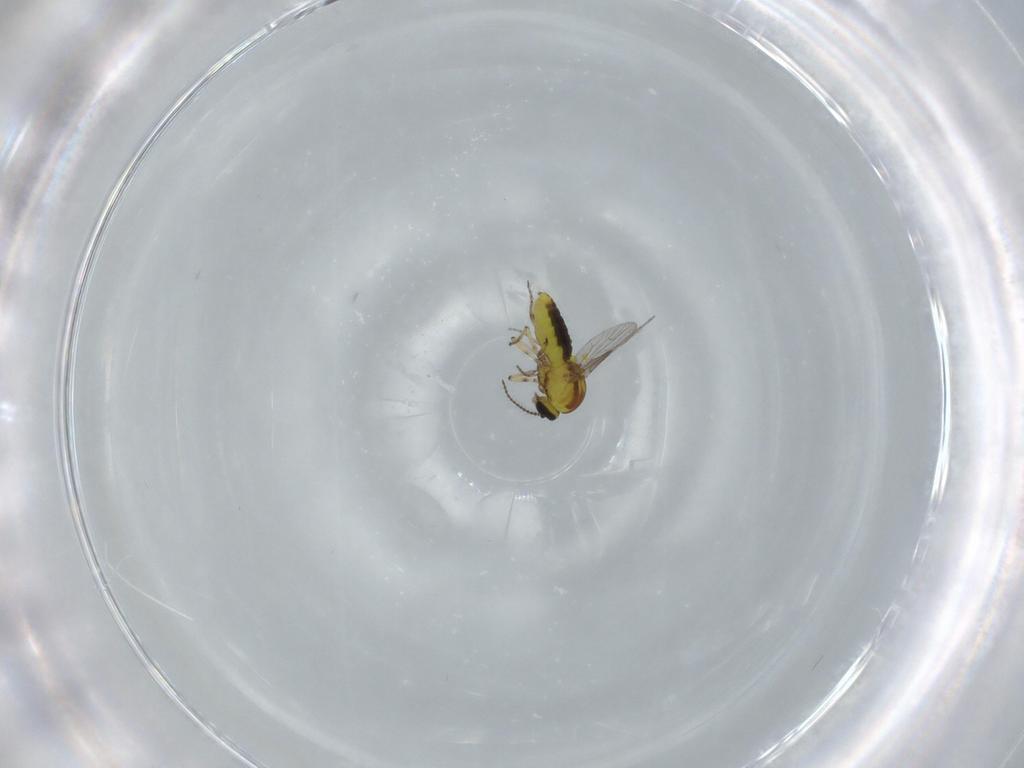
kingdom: Animalia
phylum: Arthropoda
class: Insecta
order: Diptera
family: Ceratopogonidae
